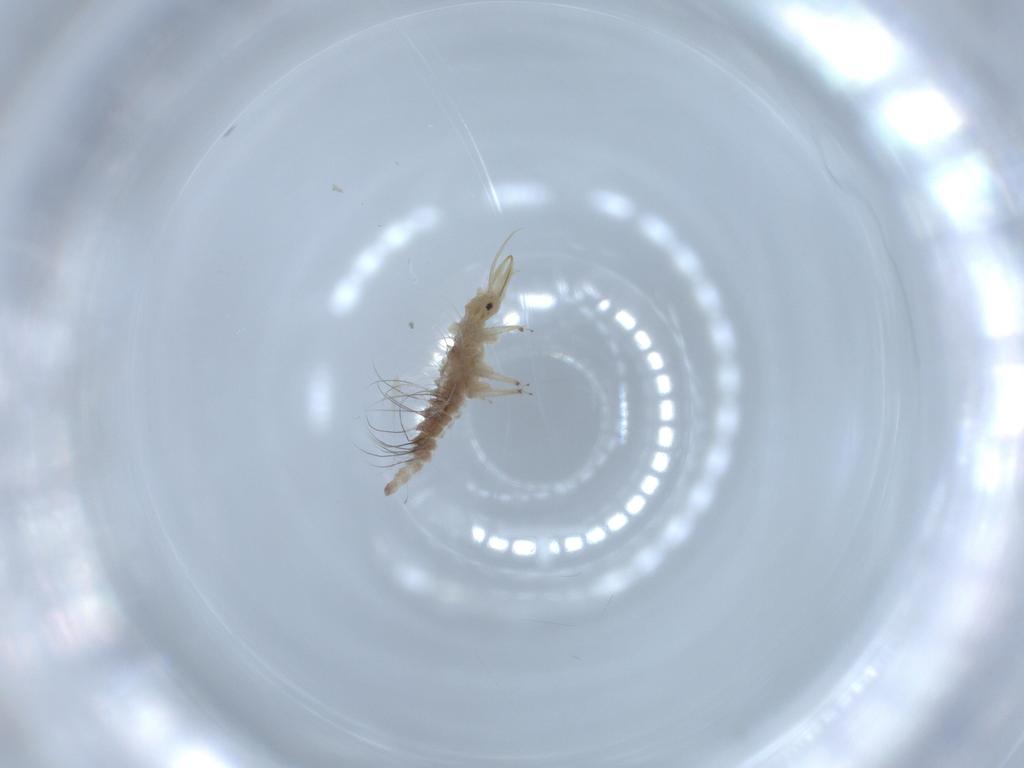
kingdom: Animalia
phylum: Arthropoda
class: Insecta
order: Neuroptera
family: Chrysopidae
